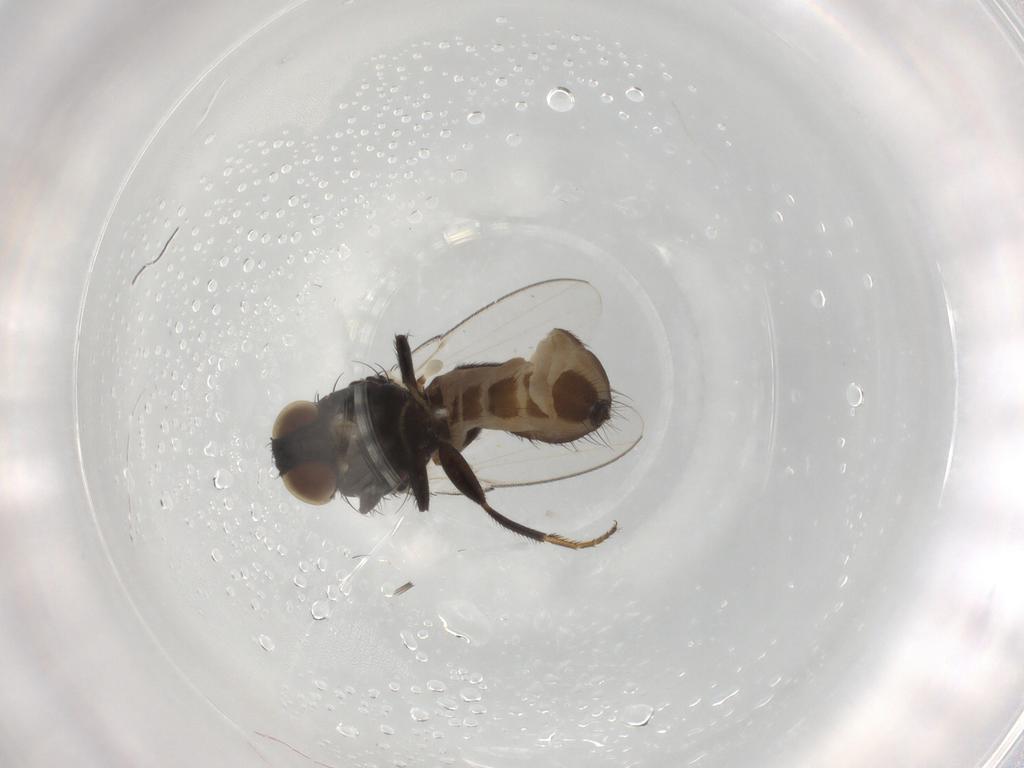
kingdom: Animalia
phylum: Arthropoda
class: Insecta
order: Diptera
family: Milichiidae
